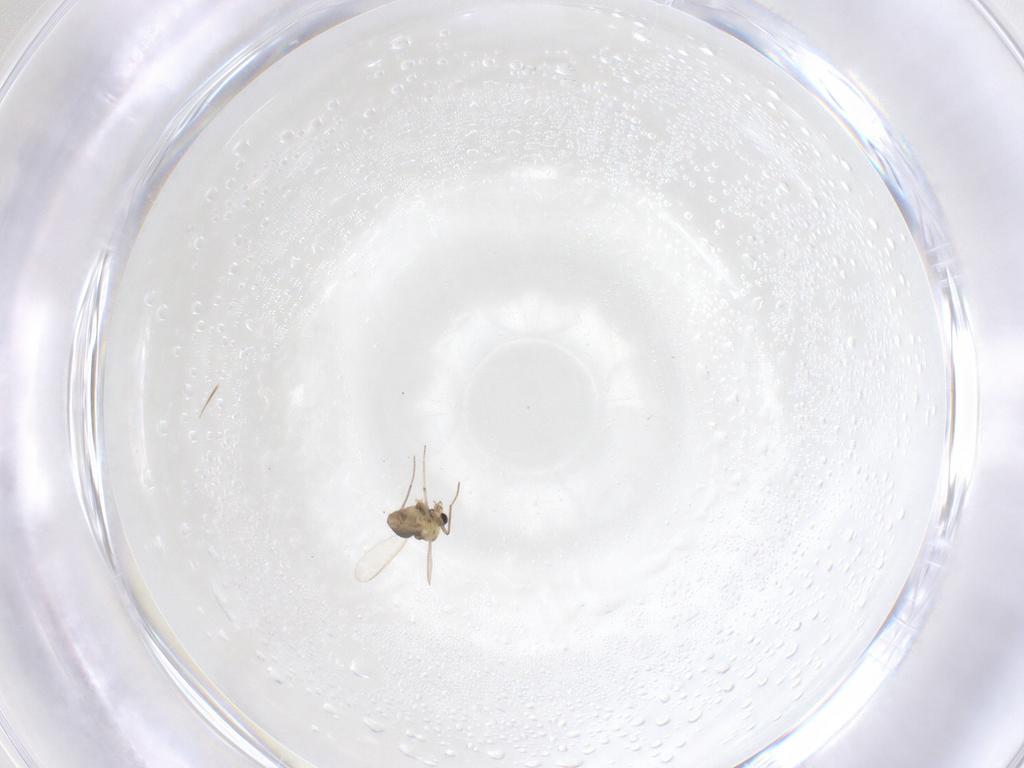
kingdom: Animalia
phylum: Arthropoda
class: Insecta
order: Diptera
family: Chironomidae
